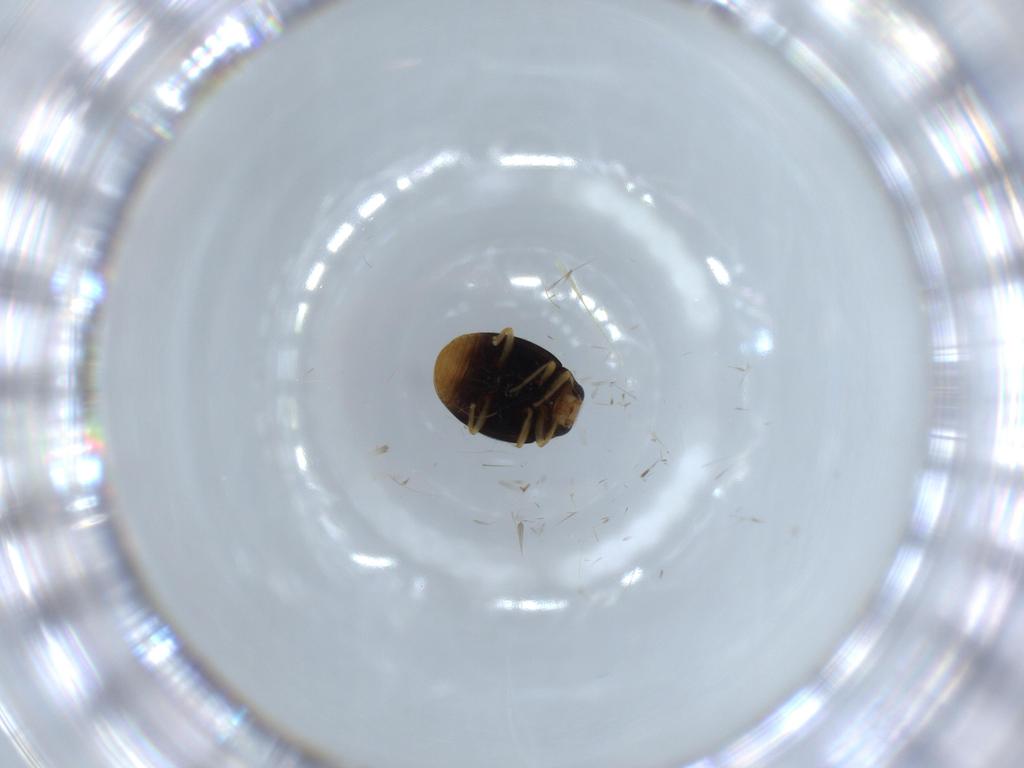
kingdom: Animalia
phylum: Arthropoda
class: Insecta
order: Coleoptera
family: Coccinellidae
